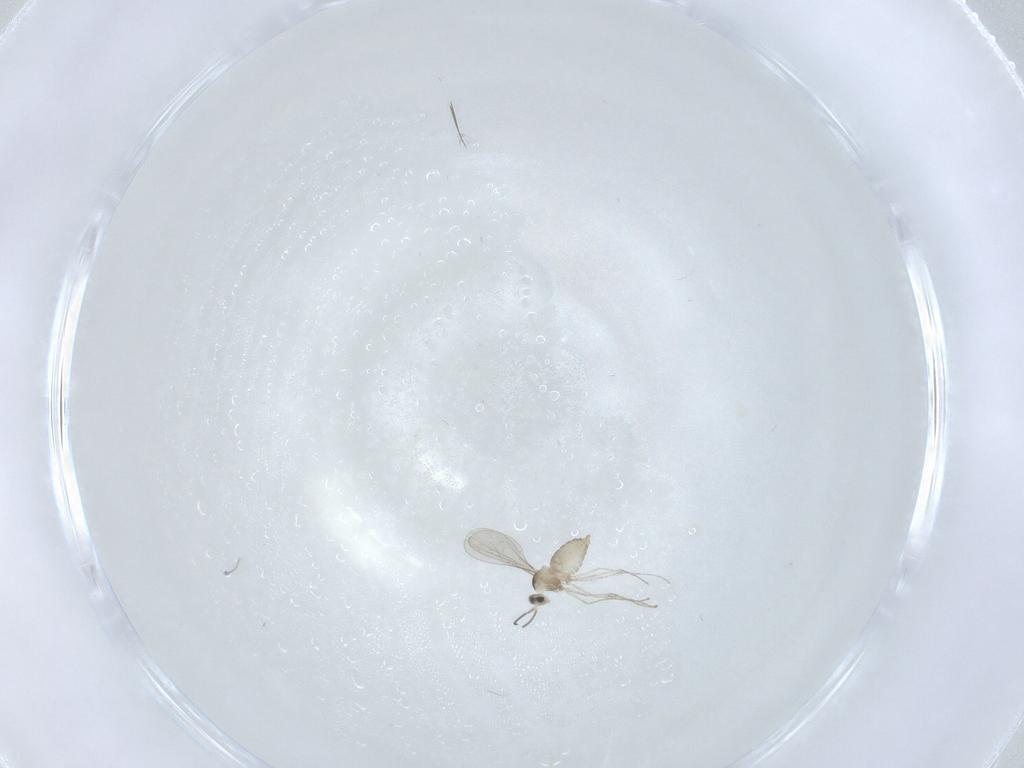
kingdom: Animalia
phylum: Arthropoda
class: Insecta
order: Diptera
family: Cecidomyiidae
